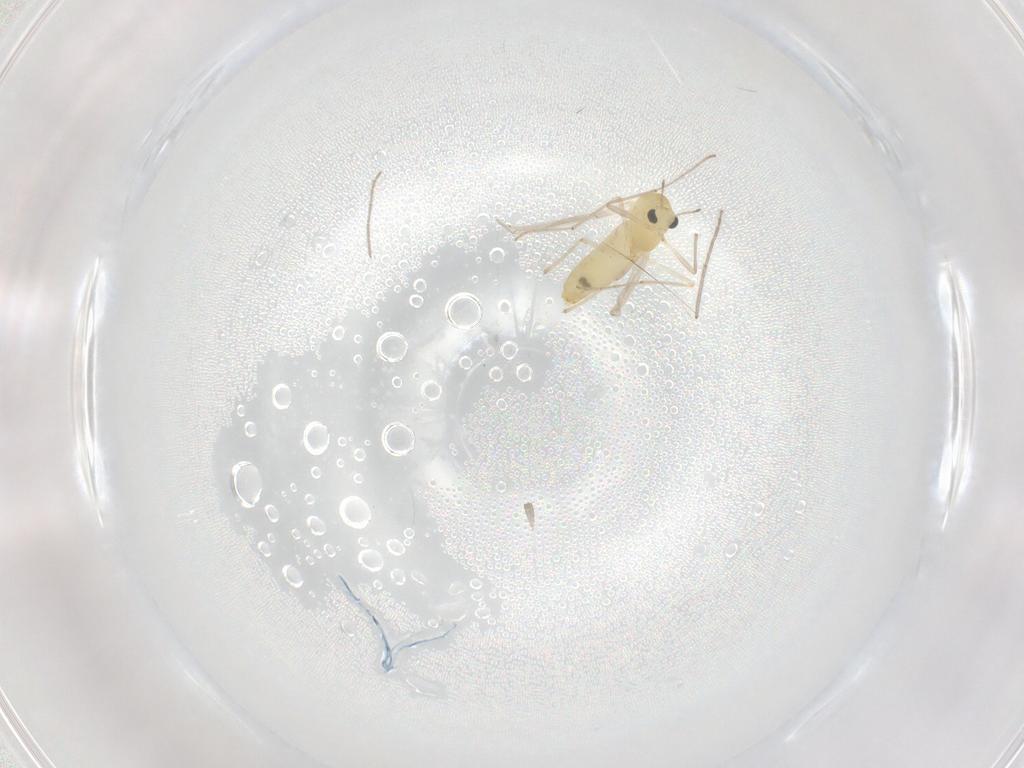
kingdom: Animalia
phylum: Arthropoda
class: Insecta
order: Diptera
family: Chironomidae
